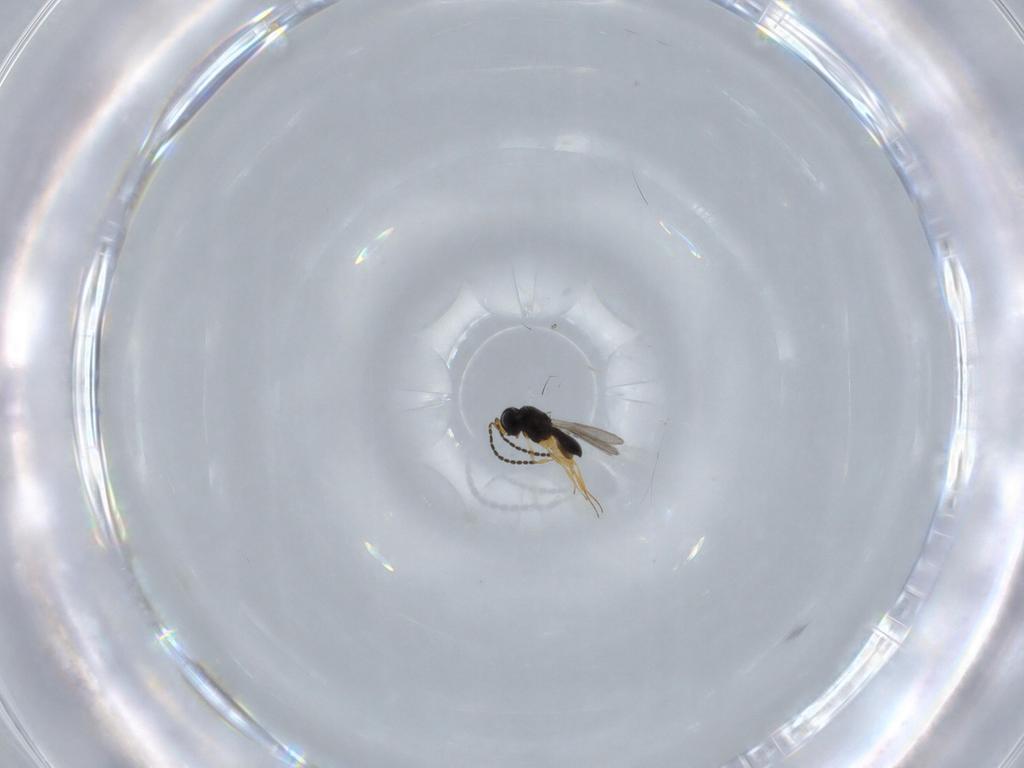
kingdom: Animalia
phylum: Arthropoda
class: Insecta
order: Hymenoptera
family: Scelionidae
